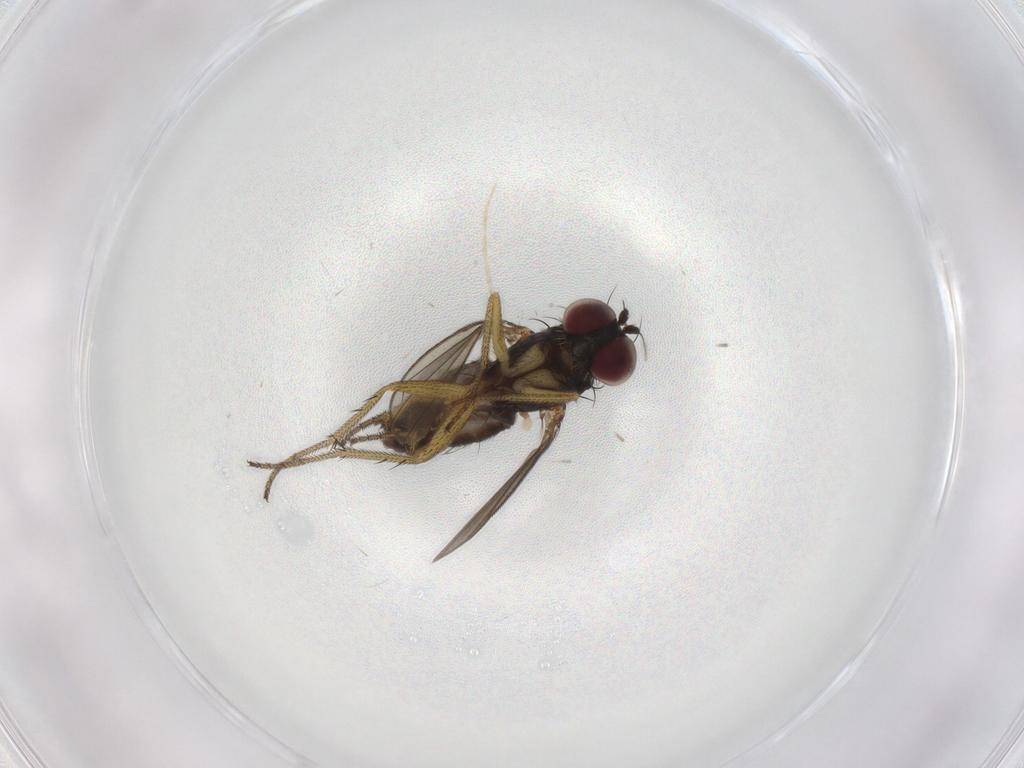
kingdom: Animalia
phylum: Arthropoda
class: Insecta
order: Diptera
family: Dolichopodidae
